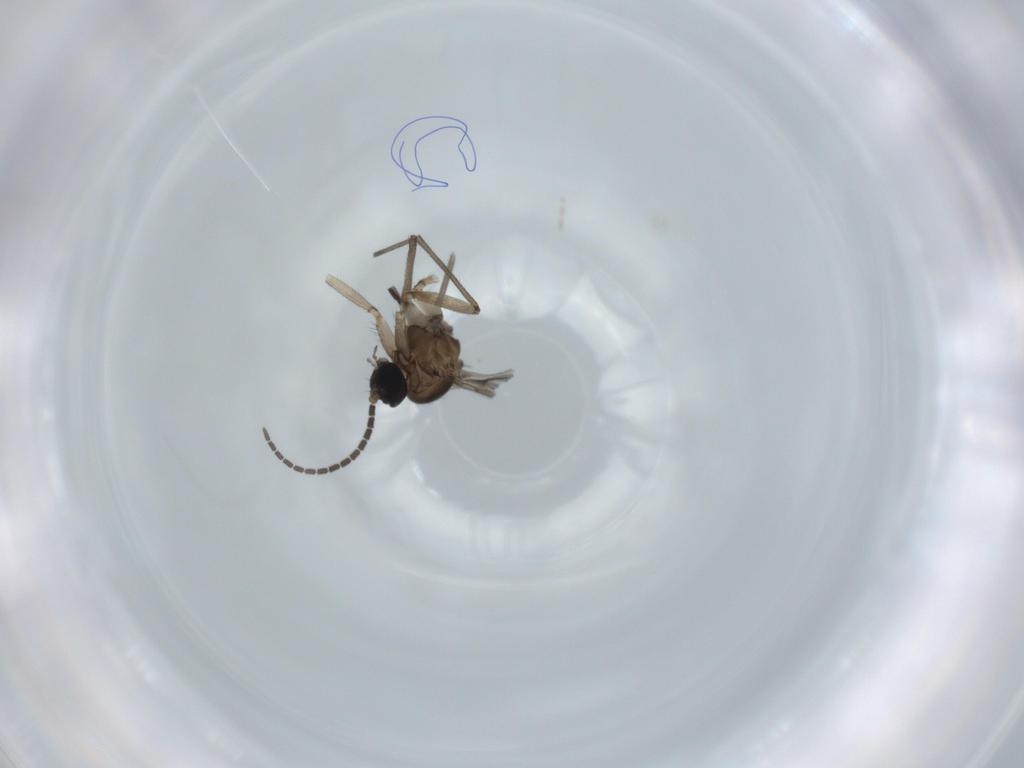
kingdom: Animalia
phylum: Arthropoda
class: Insecta
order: Diptera
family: Sciaridae
